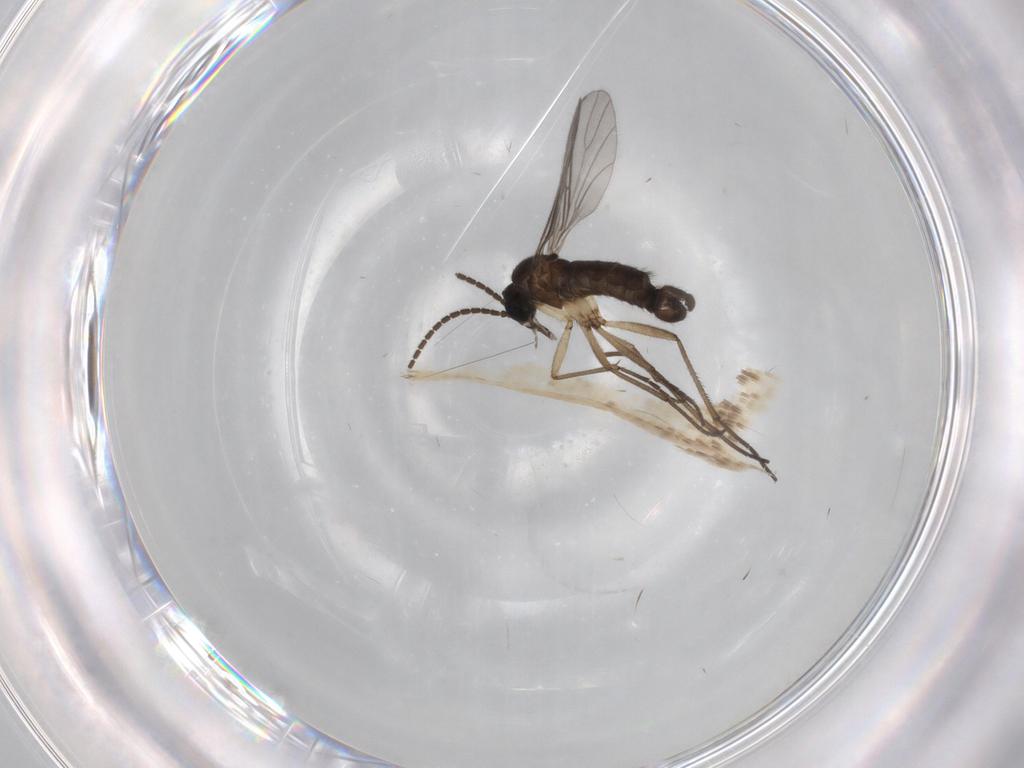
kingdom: Animalia
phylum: Arthropoda
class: Insecta
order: Diptera
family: Sciaridae
